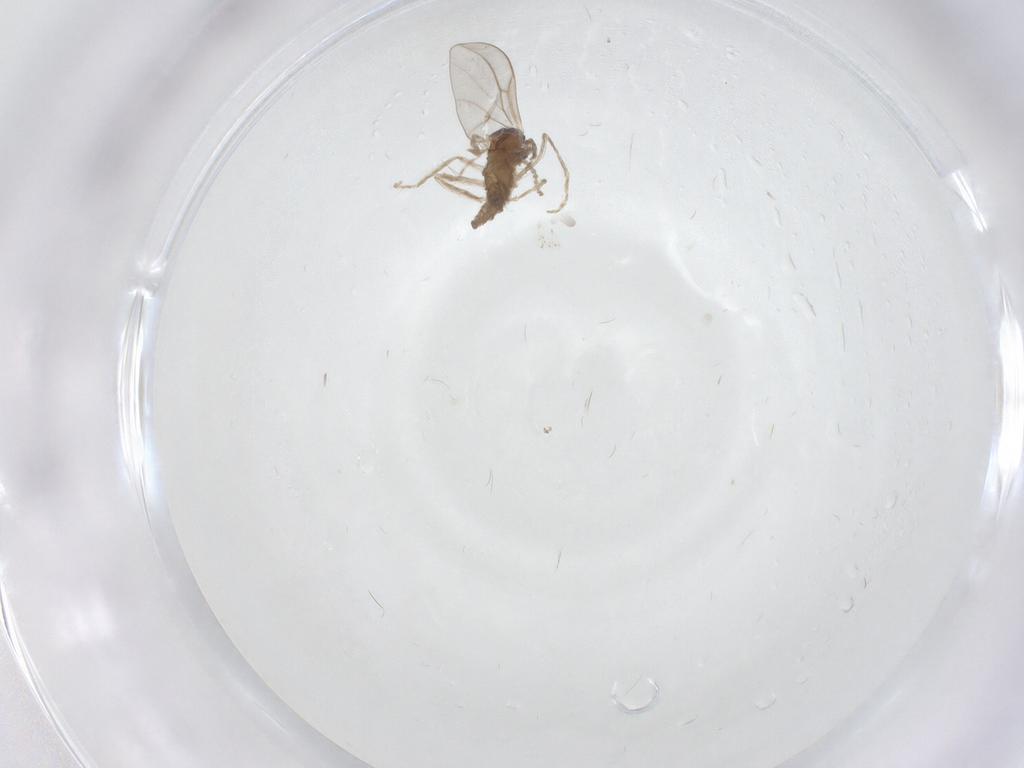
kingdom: Animalia
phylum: Arthropoda
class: Insecta
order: Diptera
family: Cecidomyiidae
